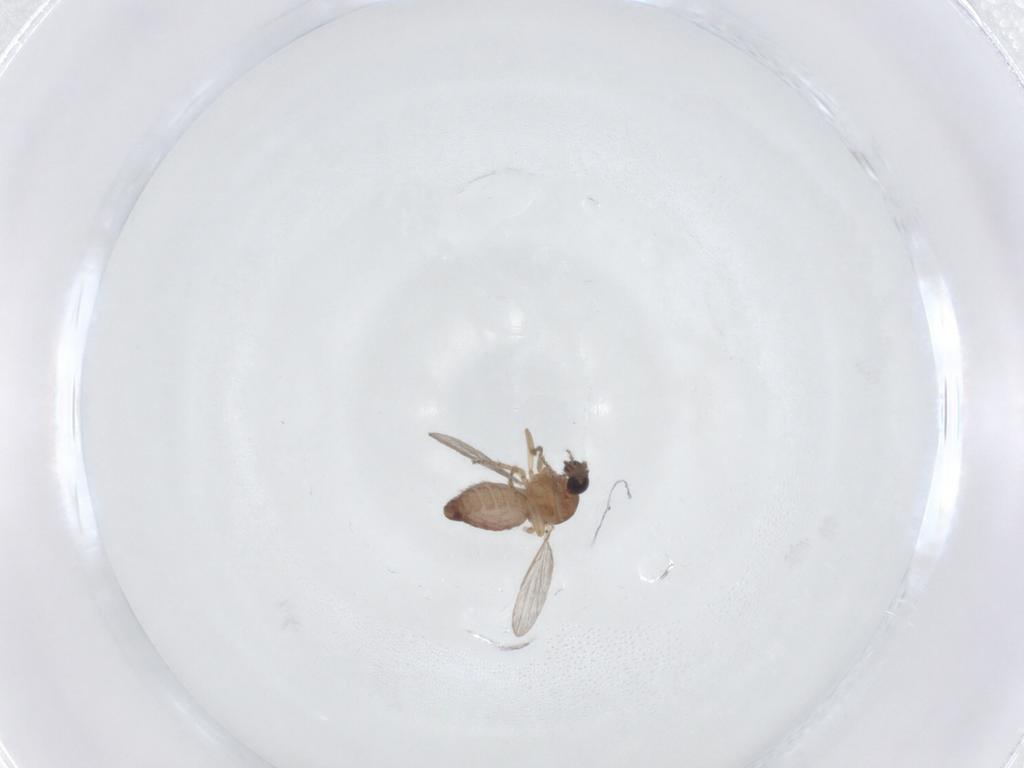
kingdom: Animalia
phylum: Arthropoda
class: Insecta
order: Diptera
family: Ceratopogonidae
